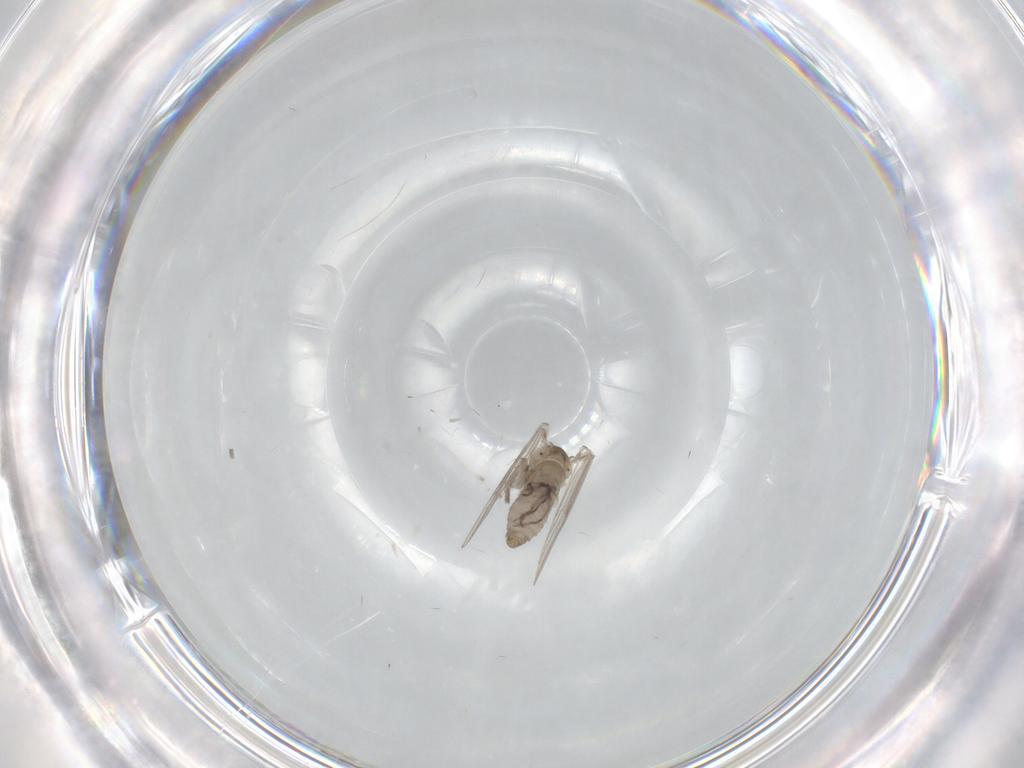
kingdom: Animalia
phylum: Arthropoda
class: Insecta
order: Diptera
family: Psychodidae
